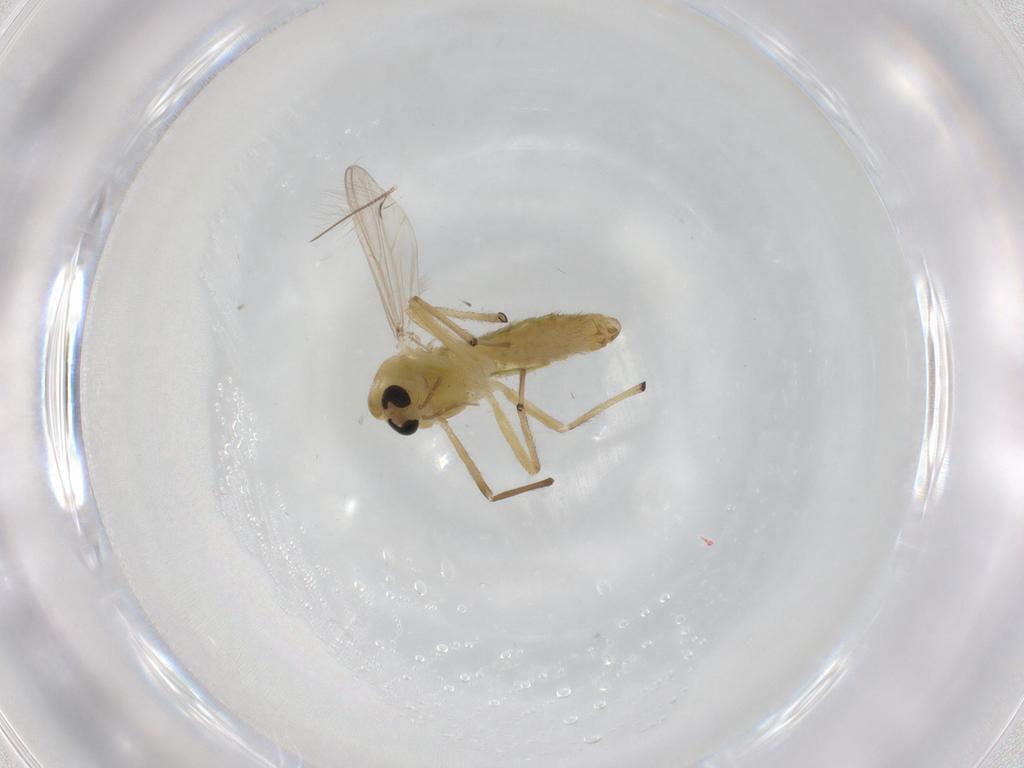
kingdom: Animalia
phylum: Arthropoda
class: Insecta
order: Diptera
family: Chironomidae
